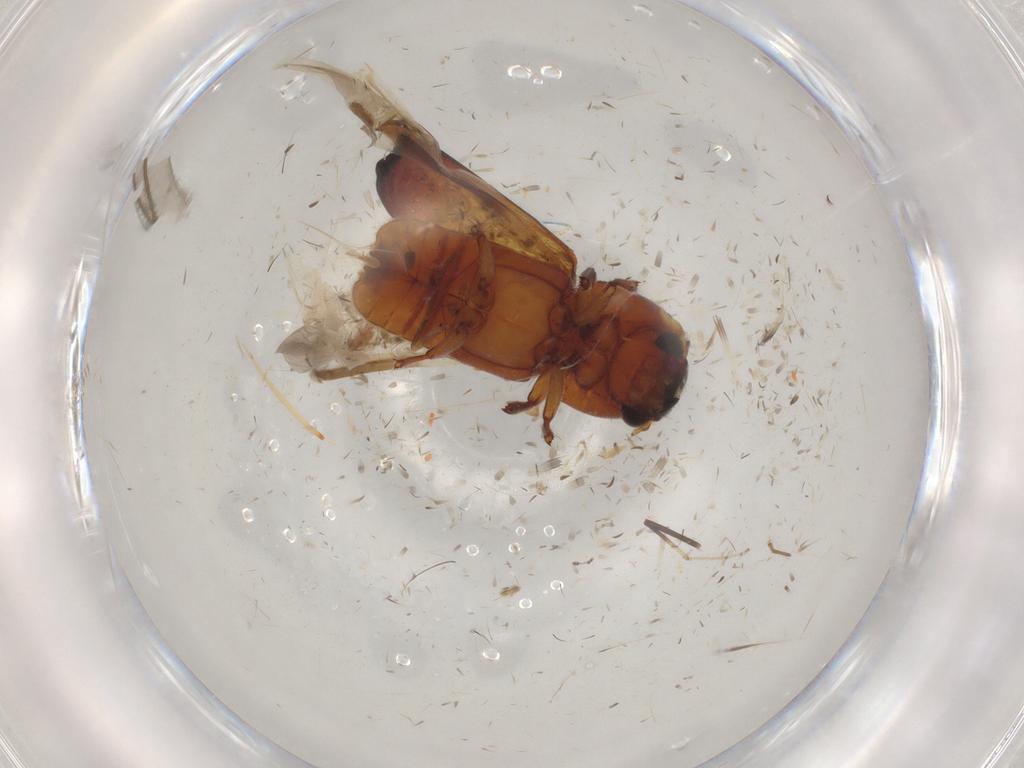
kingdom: Animalia
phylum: Arthropoda
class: Insecta
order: Coleoptera
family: Bostrichidae
